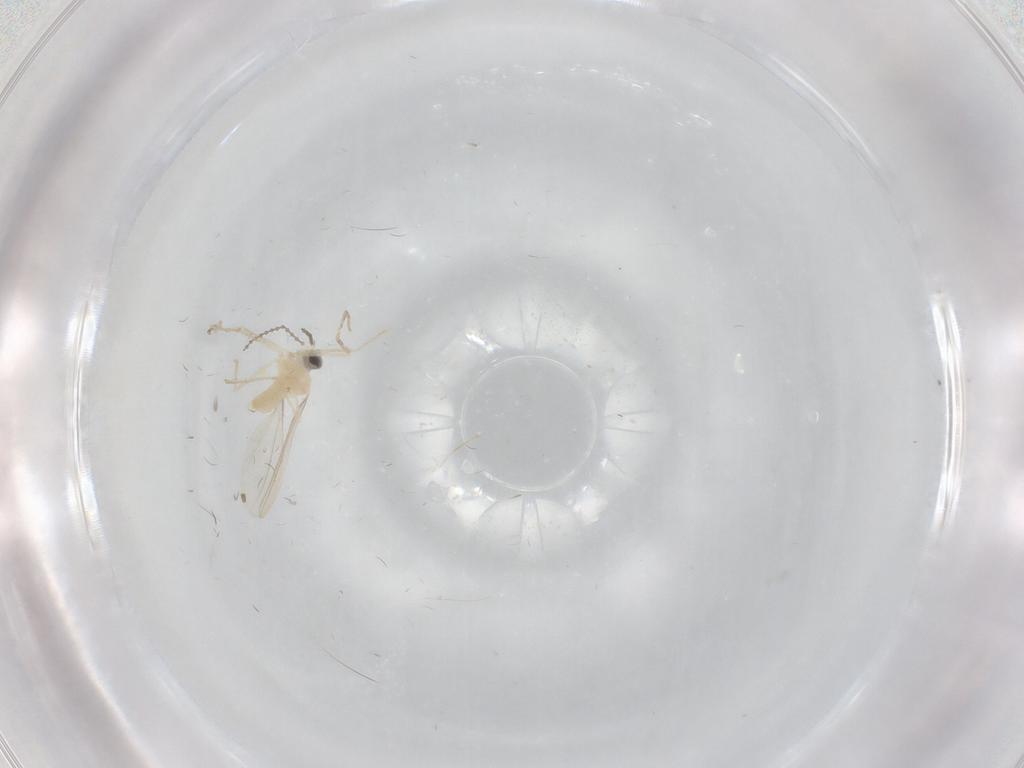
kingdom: Animalia
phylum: Arthropoda
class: Insecta
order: Diptera
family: Cecidomyiidae
